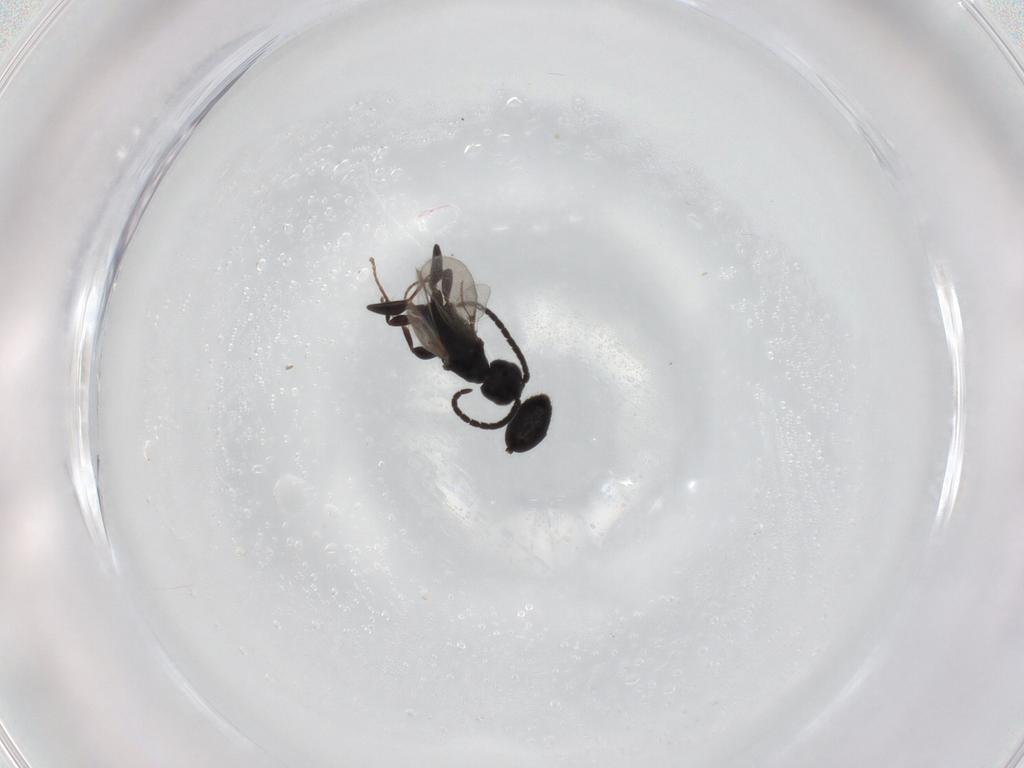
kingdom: Animalia
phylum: Arthropoda
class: Insecta
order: Hymenoptera
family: Bethylidae
